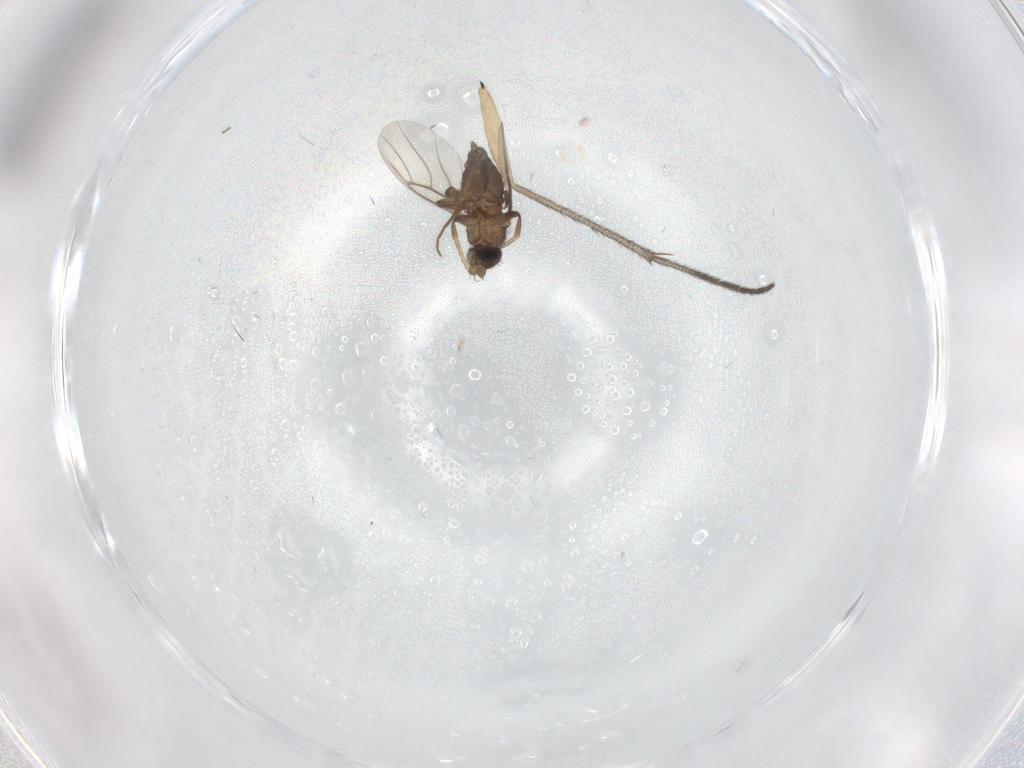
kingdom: Animalia
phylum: Arthropoda
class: Insecta
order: Diptera
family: Sciaridae
